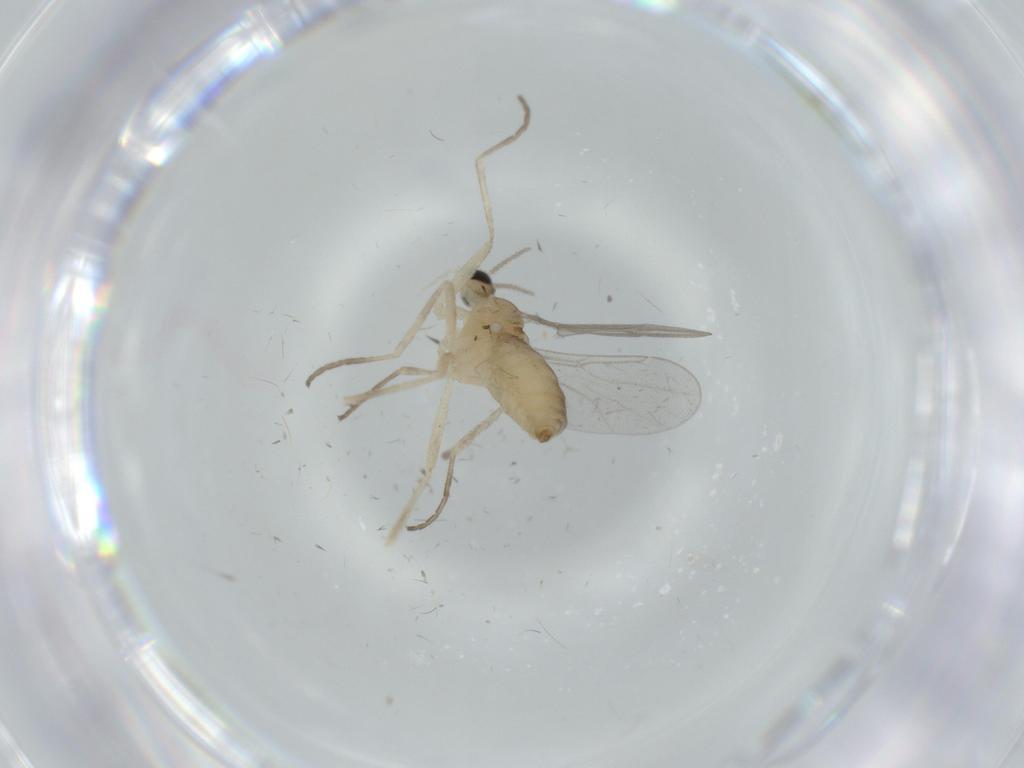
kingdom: Animalia
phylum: Arthropoda
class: Insecta
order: Diptera
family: Cecidomyiidae
